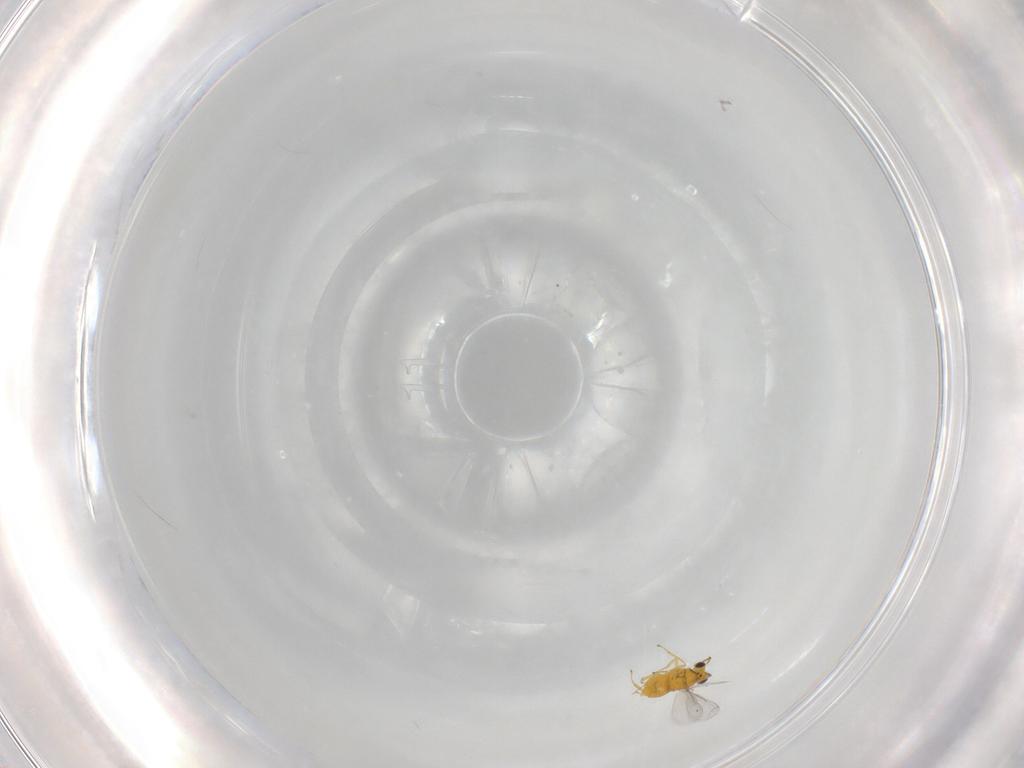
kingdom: Animalia
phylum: Arthropoda
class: Insecta
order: Hymenoptera
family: Aphelinidae
